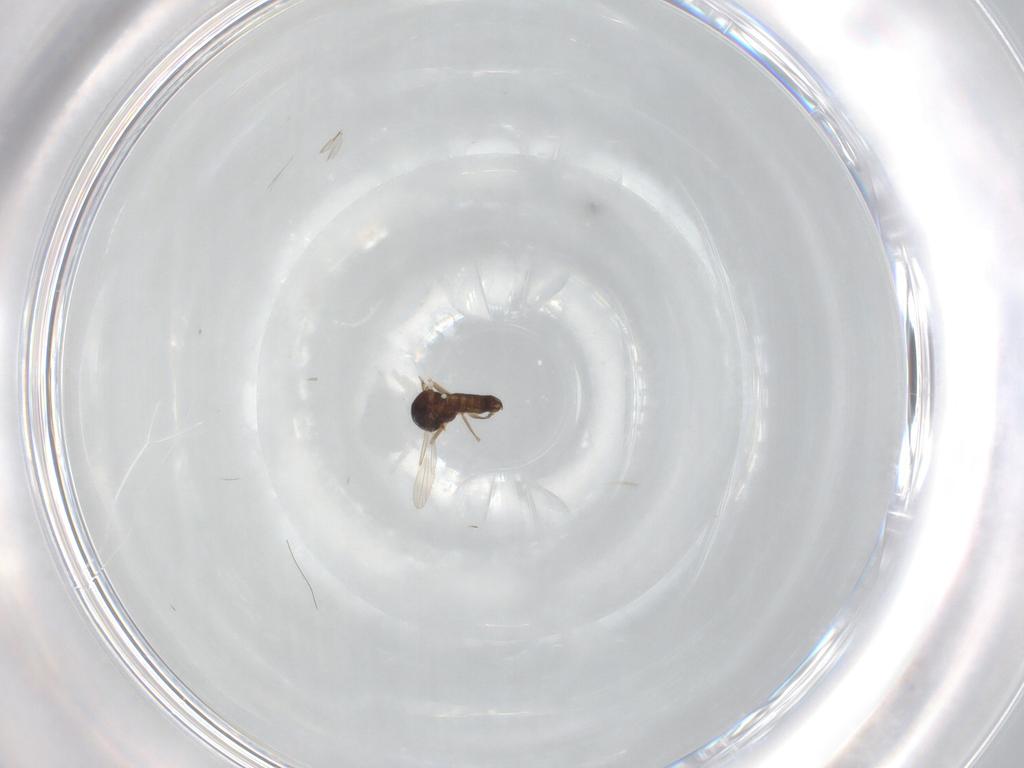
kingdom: Animalia
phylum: Arthropoda
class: Insecta
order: Diptera
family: Ceratopogonidae
